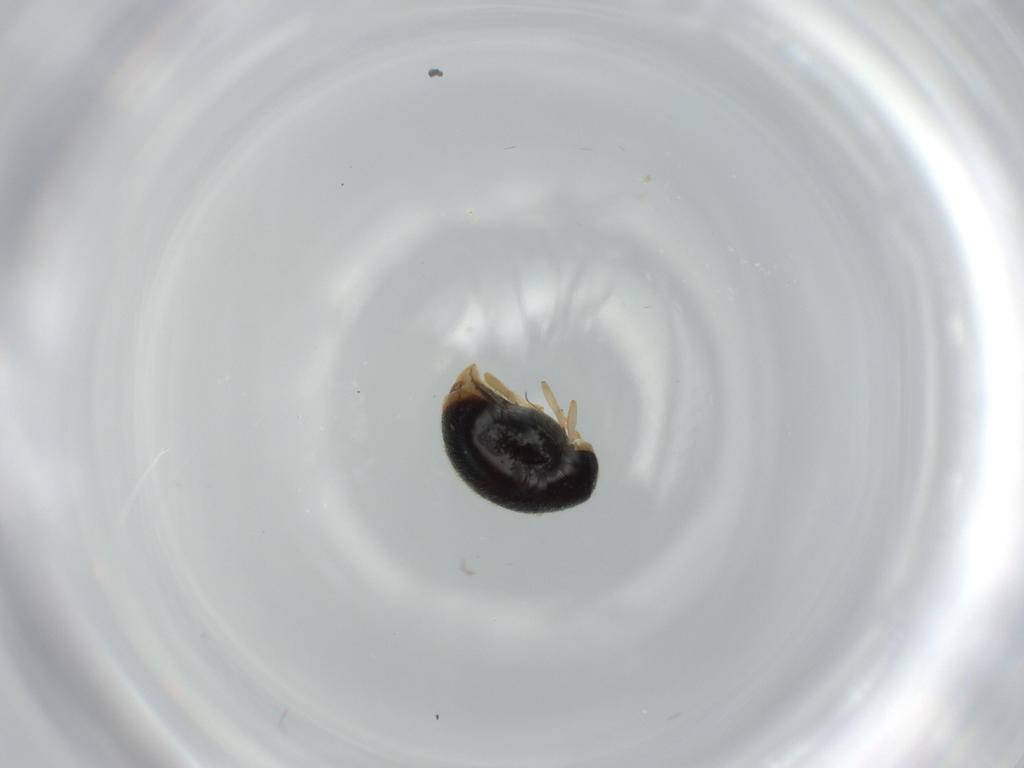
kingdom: Animalia
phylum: Arthropoda
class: Insecta
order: Coleoptera
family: Coccinellidae
